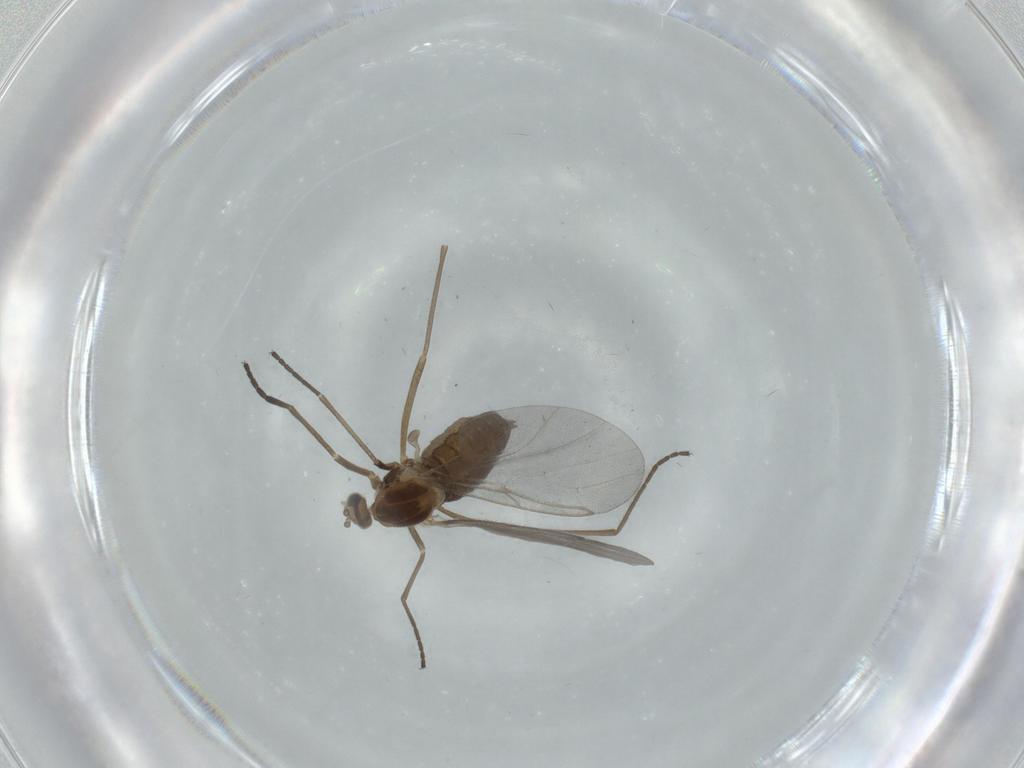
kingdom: Animalia
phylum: Arthropoda
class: Insecta
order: Diptera
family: Cecidomyiidae
